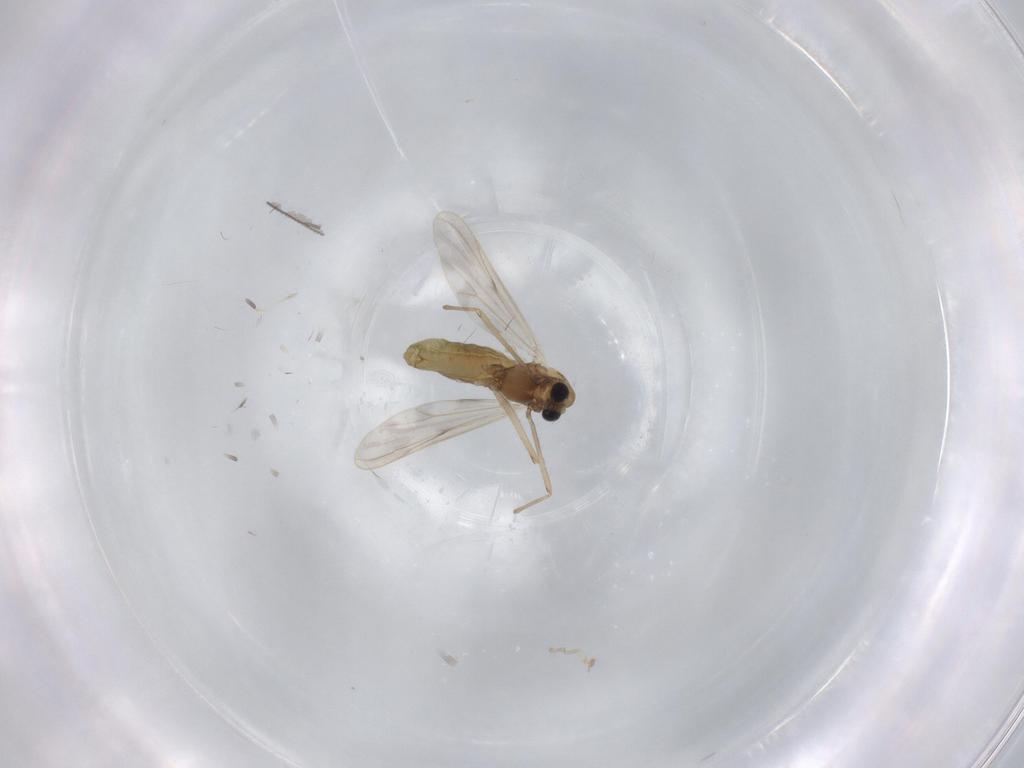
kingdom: Animalia
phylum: Arthropoda
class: Insecta
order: Diptera
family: Chironomidae
